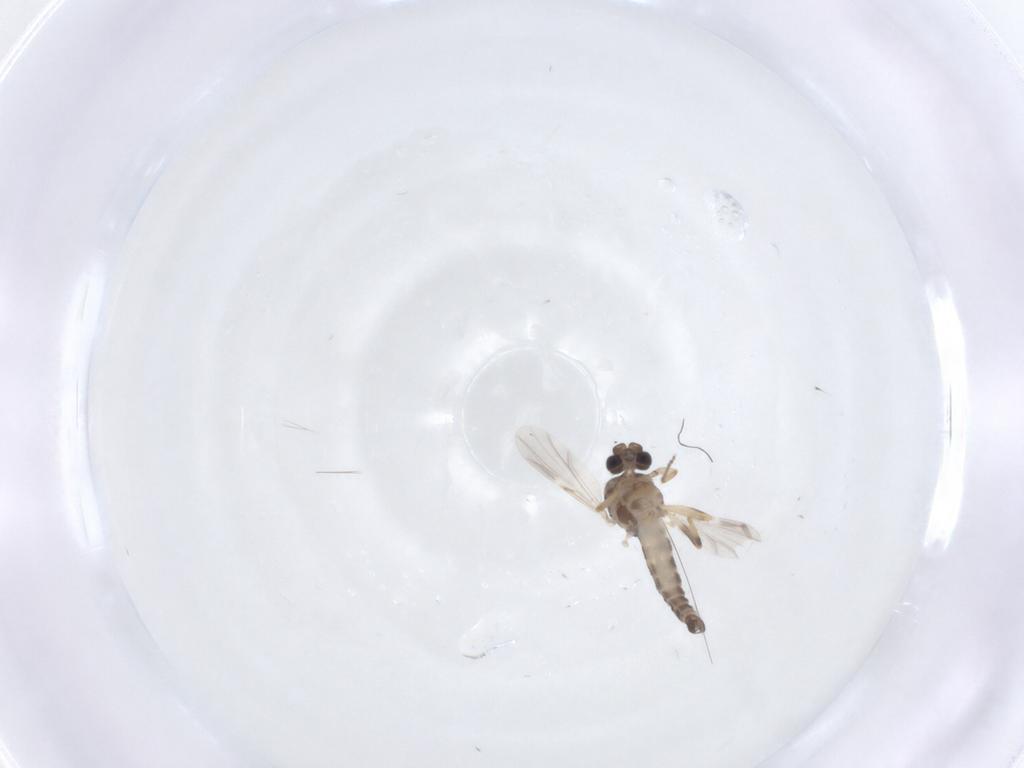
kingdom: Animalia
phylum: Arthropoda
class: Insecta
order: Diptera
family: Ceratopogonidae
